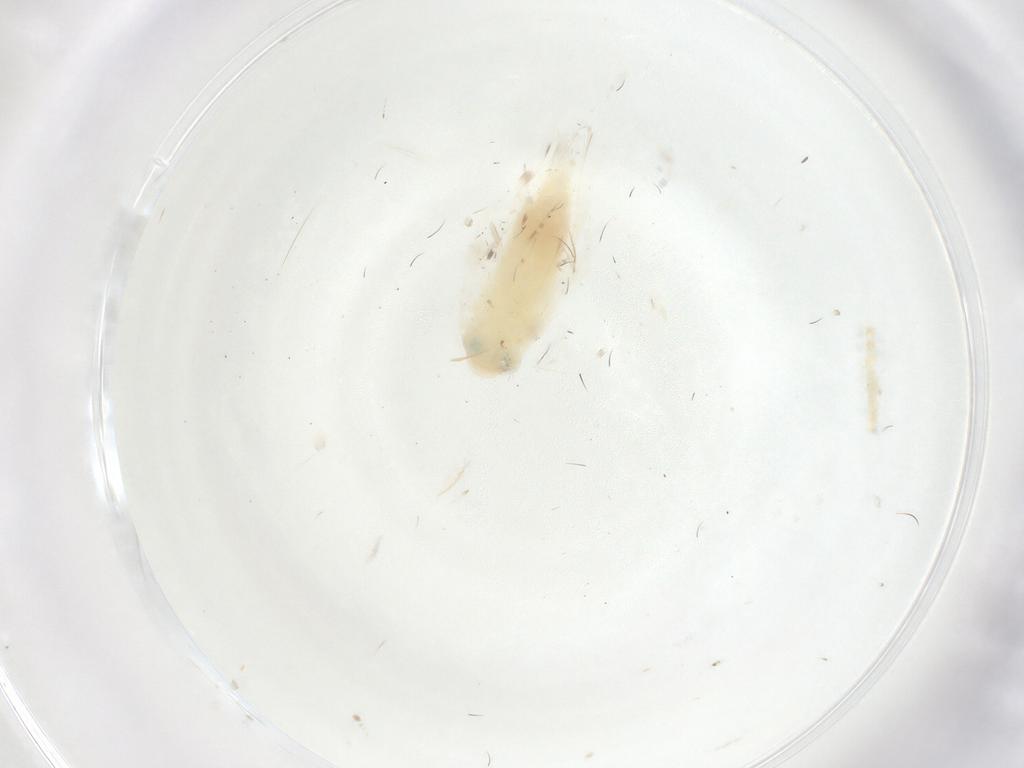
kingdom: Animalia
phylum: Arthropoda
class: Insecta
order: Lepidoptera
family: Gelechiidae
